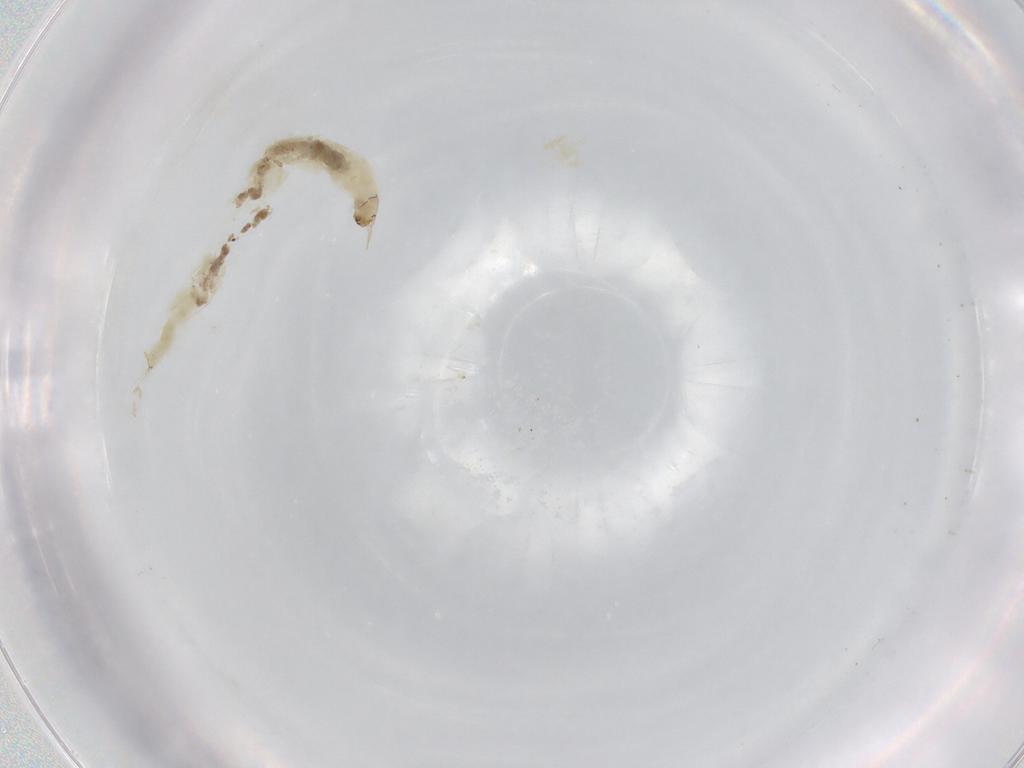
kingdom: Animalia
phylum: Arthropoda
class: Insecta
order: Diptera
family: Chironomidae
